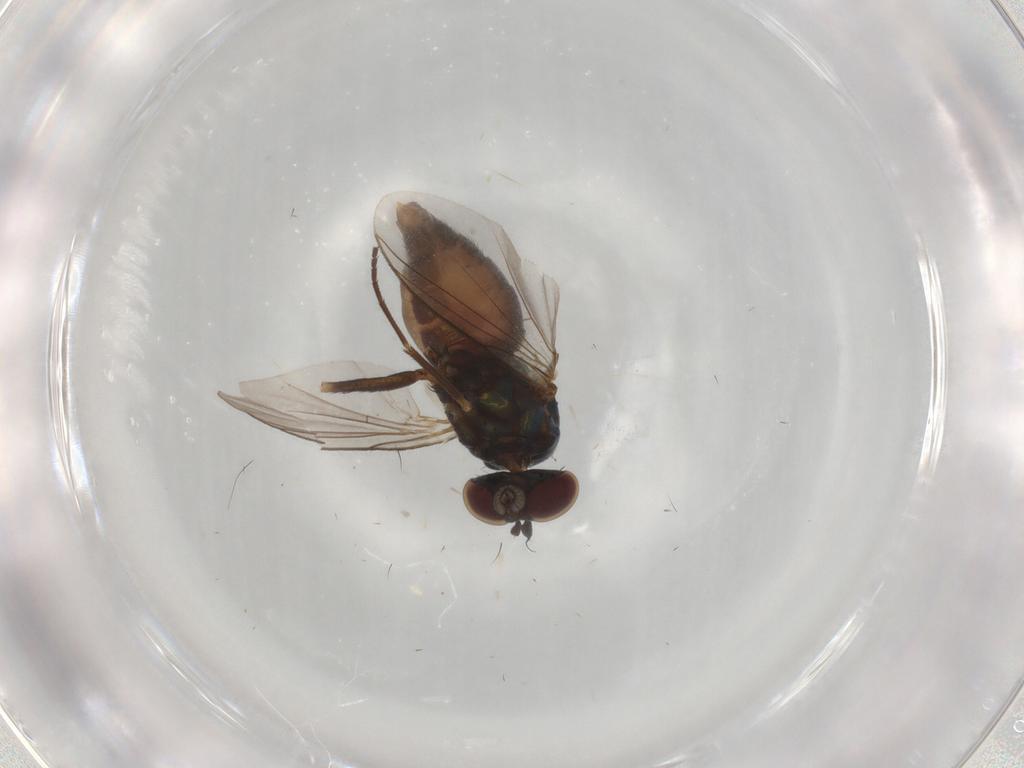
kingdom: Animalia
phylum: Arthropoda
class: Insecta
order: Diptera
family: Dolichopodidae
